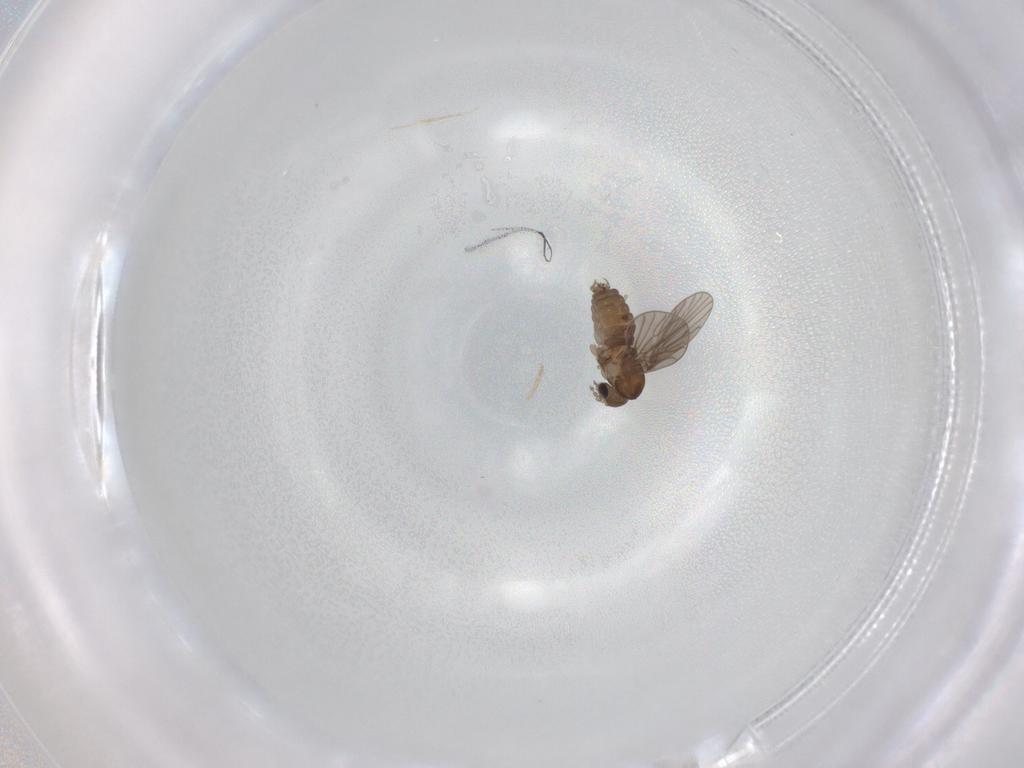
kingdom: Animalia
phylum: Arthropoda
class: Insecta
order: Diptera
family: Psychodidae
